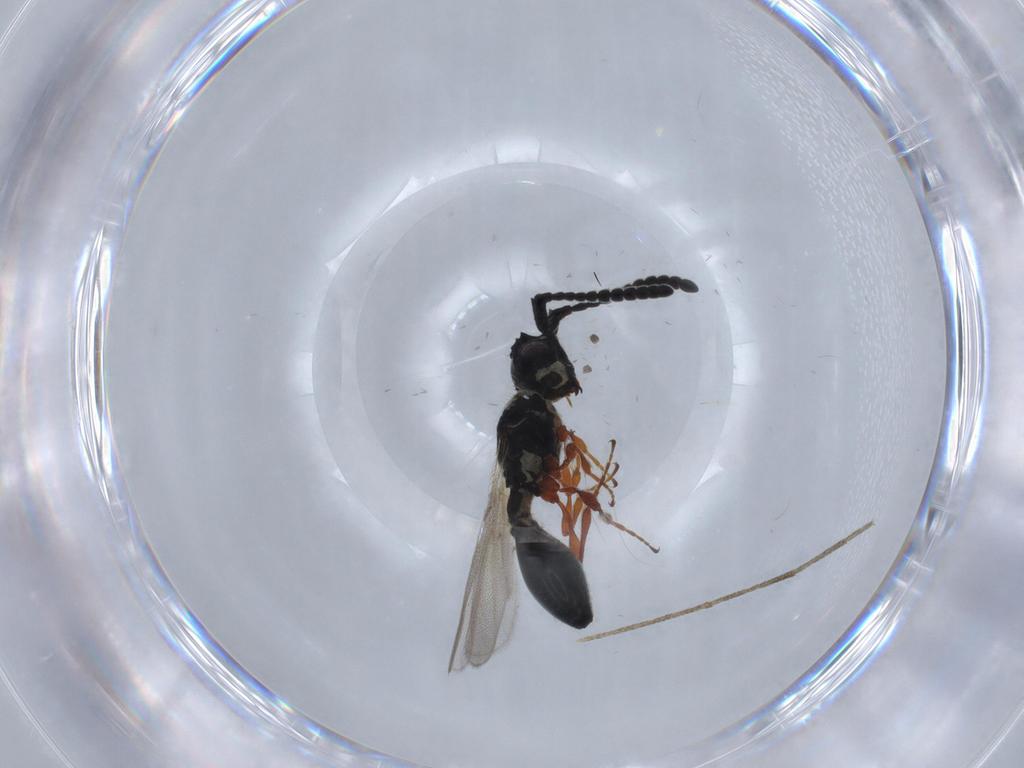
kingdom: Animalia
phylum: Arthropoda
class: Insecta
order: Hymenoptera
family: Diapriidae
